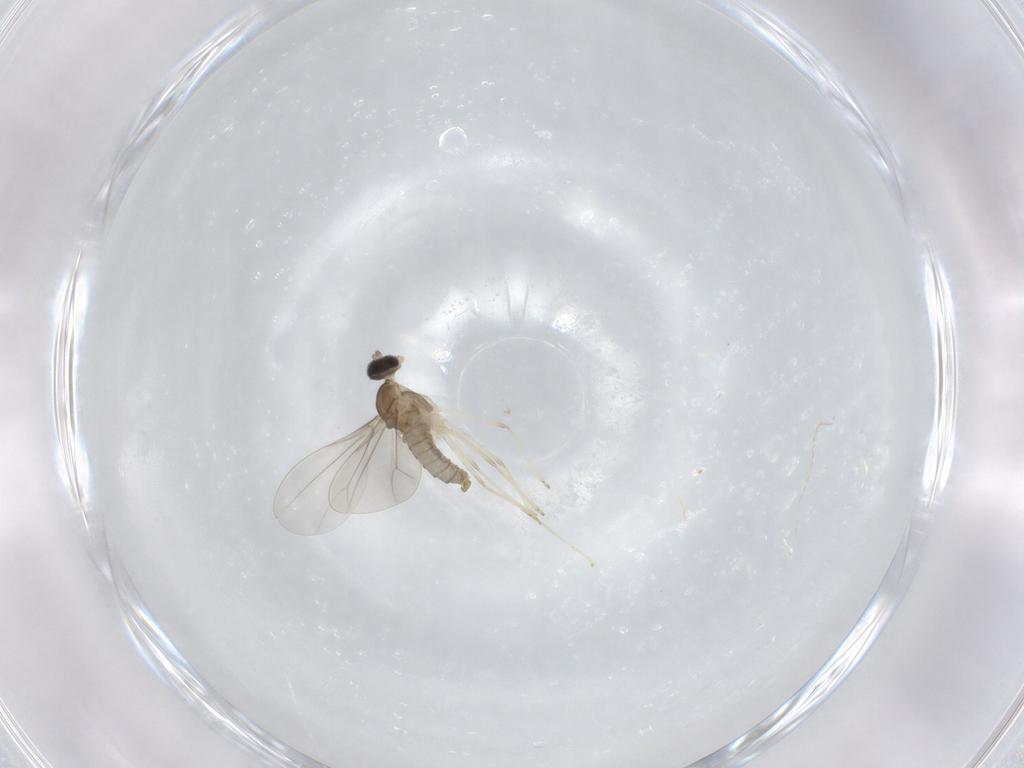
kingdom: Animalia
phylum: Arthropoda
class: Insecta
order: Diptera
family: Cecidomyiidae
